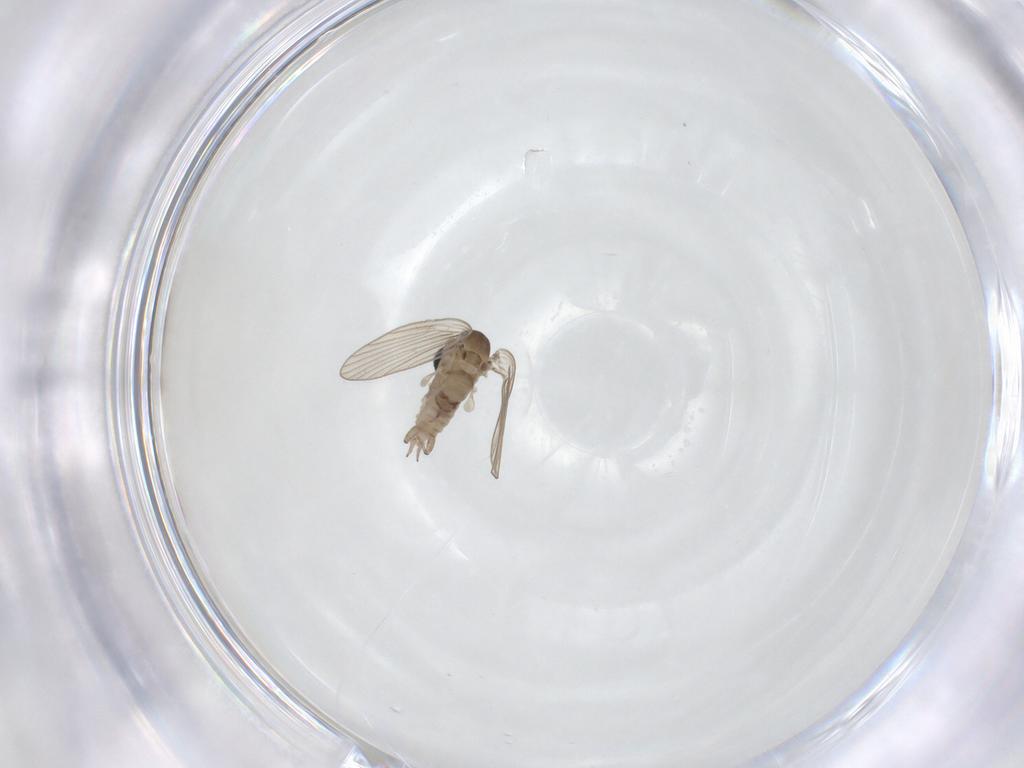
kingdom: Animalia
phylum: Arthropoda
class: Insecta
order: Diptera
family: Psychodidae
